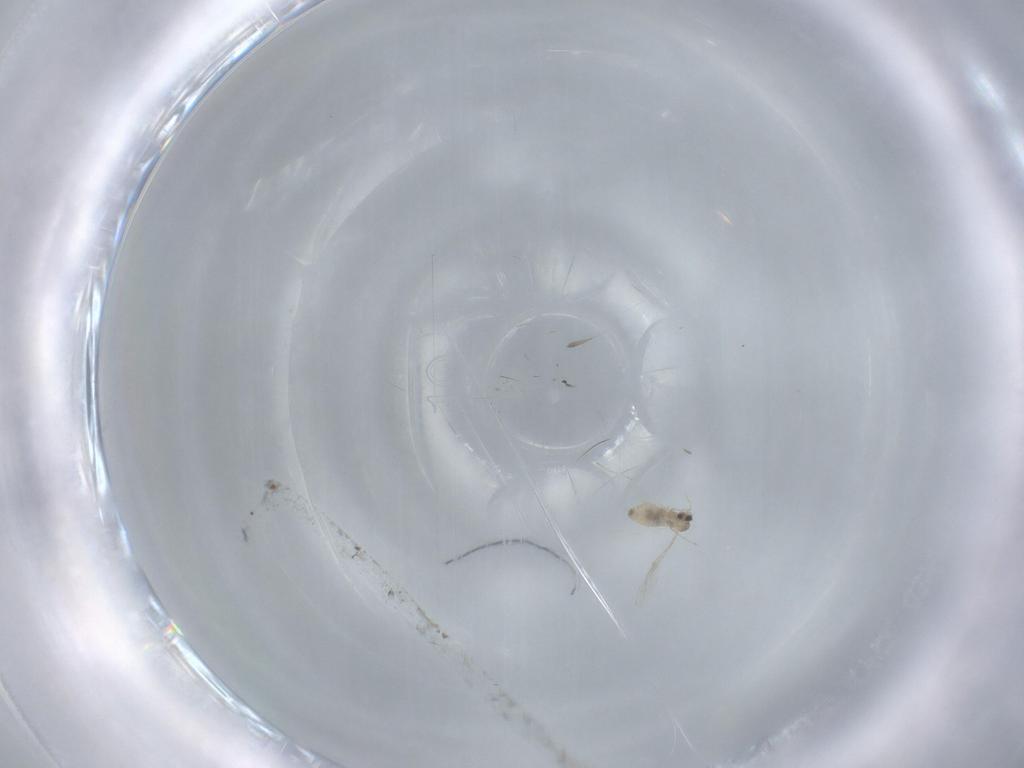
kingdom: Animalia
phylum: Arthropoda
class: Insecta
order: Diptera
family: Cecidomyiidae
